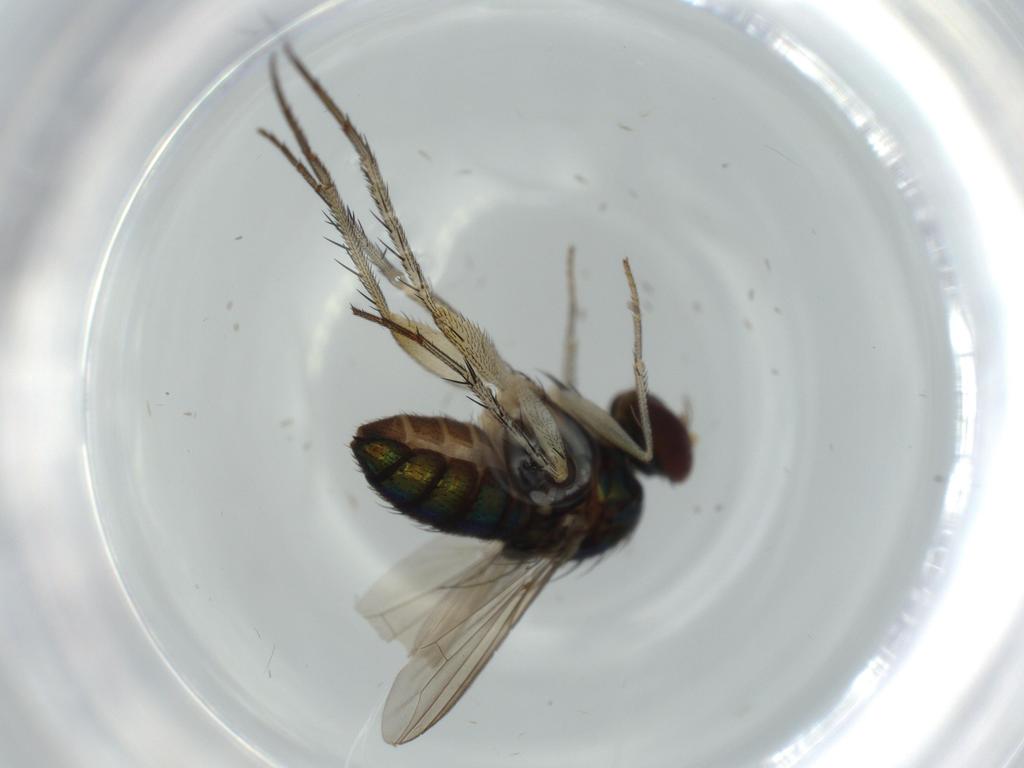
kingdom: Animalia
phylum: Arthropoda
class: Insecta
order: Diptera
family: Dolichopodidae
